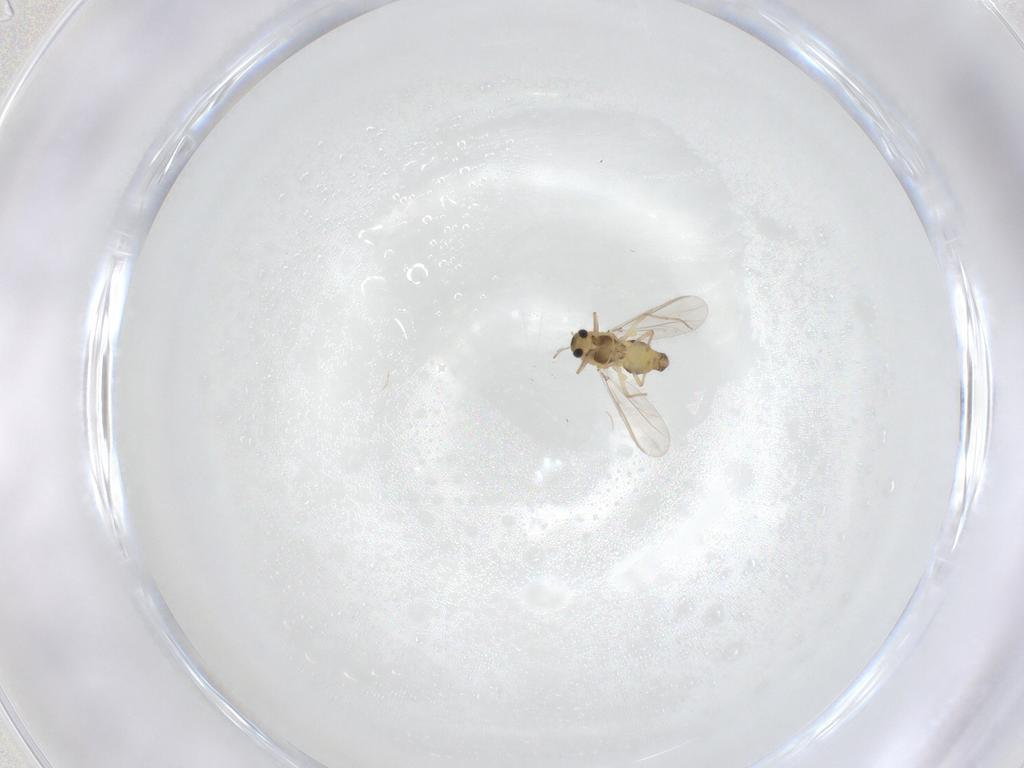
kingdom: Animalia
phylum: Arthropoda
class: Insecta
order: Diptera
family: Chironomidae
